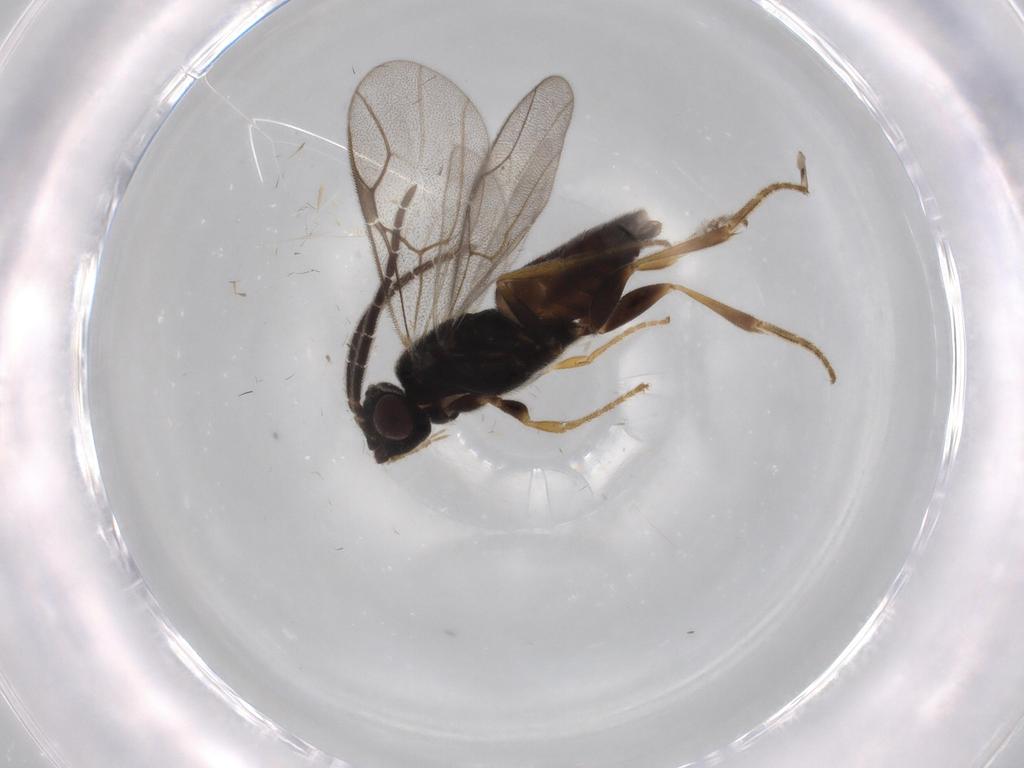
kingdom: Animalia
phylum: Arthropoda
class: Insecta
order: Hymenoptera
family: Dryinidae
